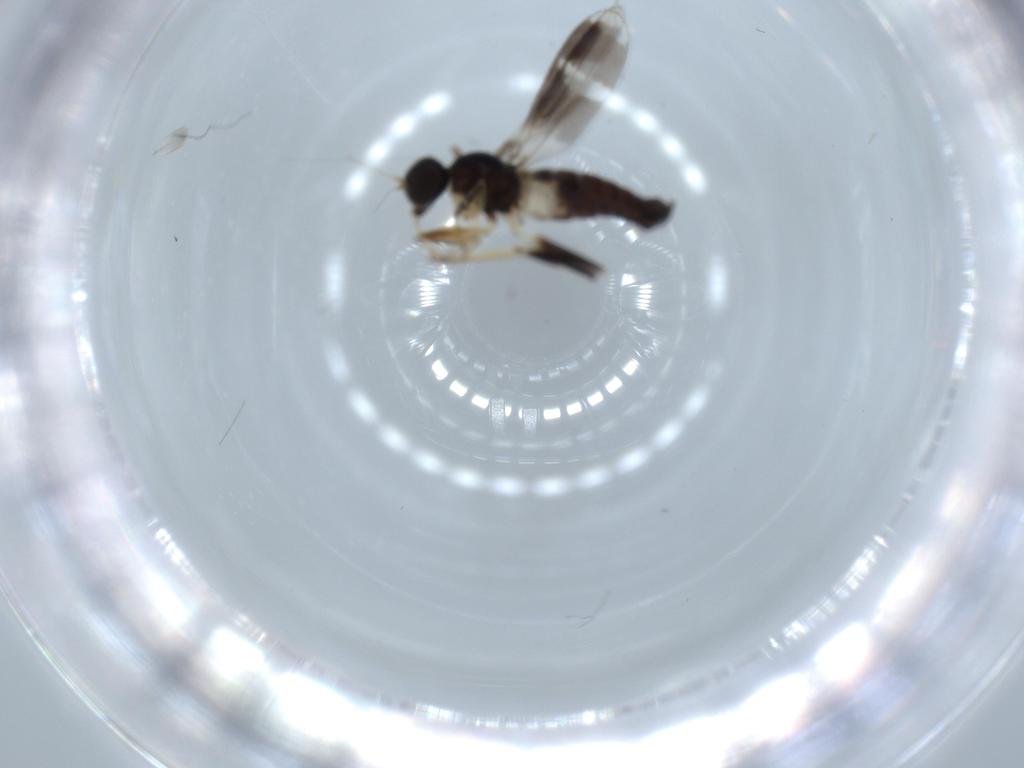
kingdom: Animalia
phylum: Arthropoda
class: Insecta
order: Diptera
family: Hybotidae
